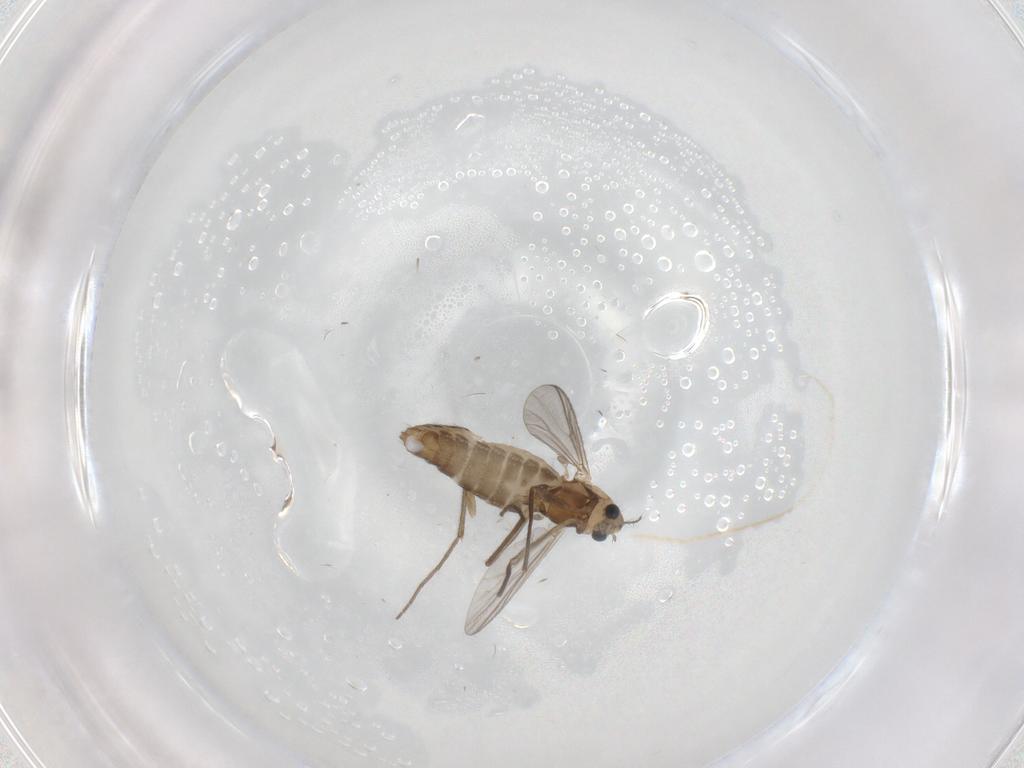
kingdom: Animalia
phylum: Arthropoda
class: Insecta
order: Diptera
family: Chironomidae
